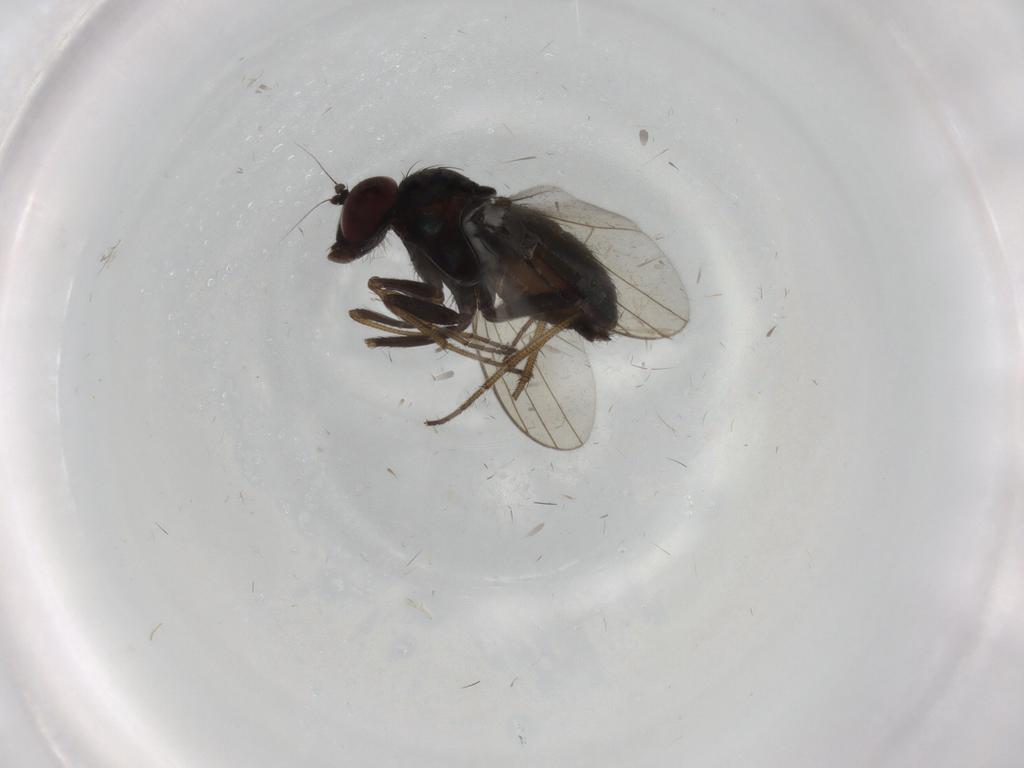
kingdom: Animalia
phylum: Arthropoda
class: Insecta
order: Diptera
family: Dolichopodidae
